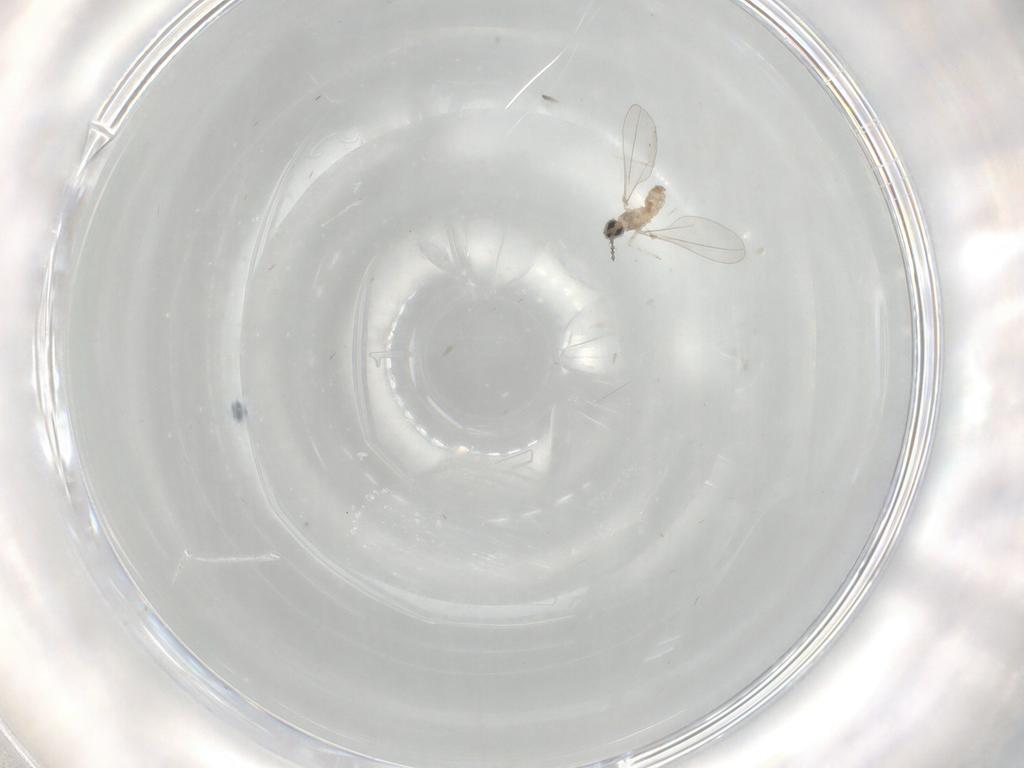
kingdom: Animalia
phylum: Arthropoda
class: Insecta
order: Diptera
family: Cecidomyiidae
